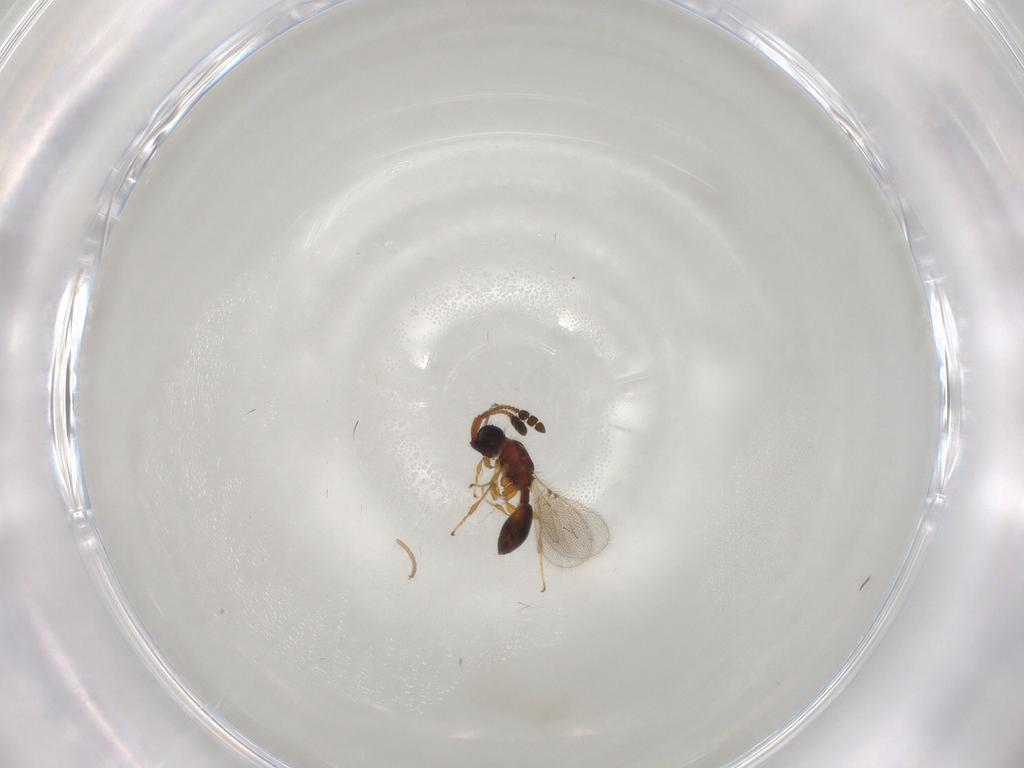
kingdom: Animalia
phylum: Arthropoda
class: Insecta
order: Hymenoptera
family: Diapriidae
